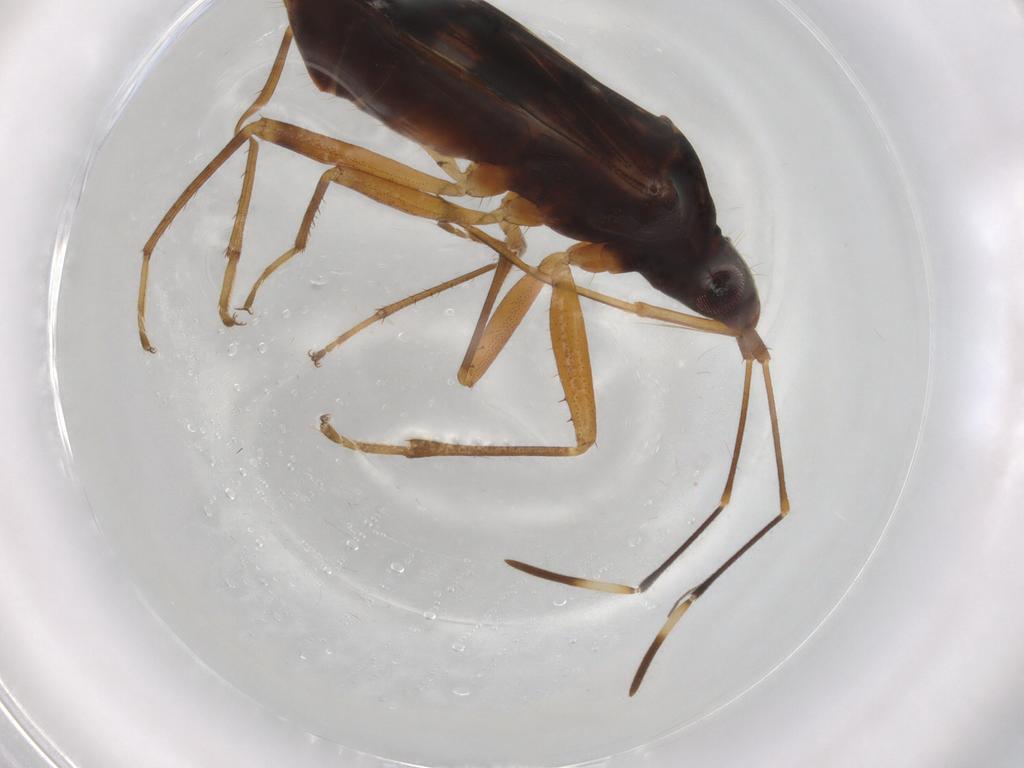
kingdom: Animalia
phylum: Arthropoda
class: Insecta
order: Hemiptera
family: Rhyparochromidae
